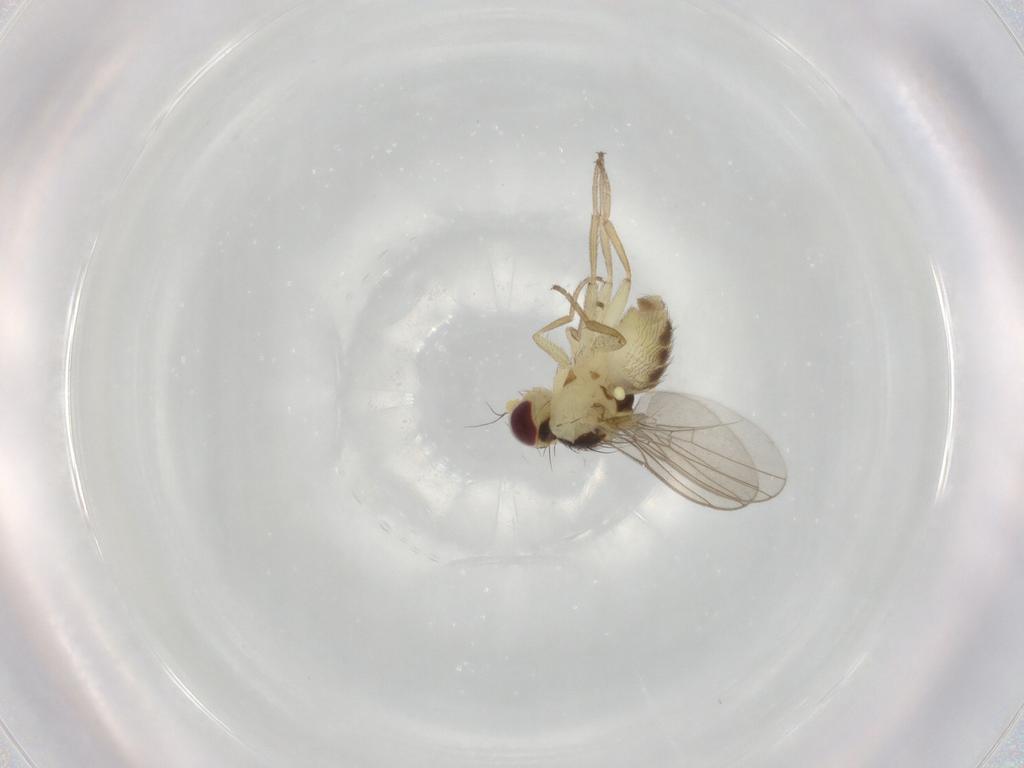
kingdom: Animalia
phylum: Arthropoda
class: Insecta
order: Diptera
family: Agromyzidae
